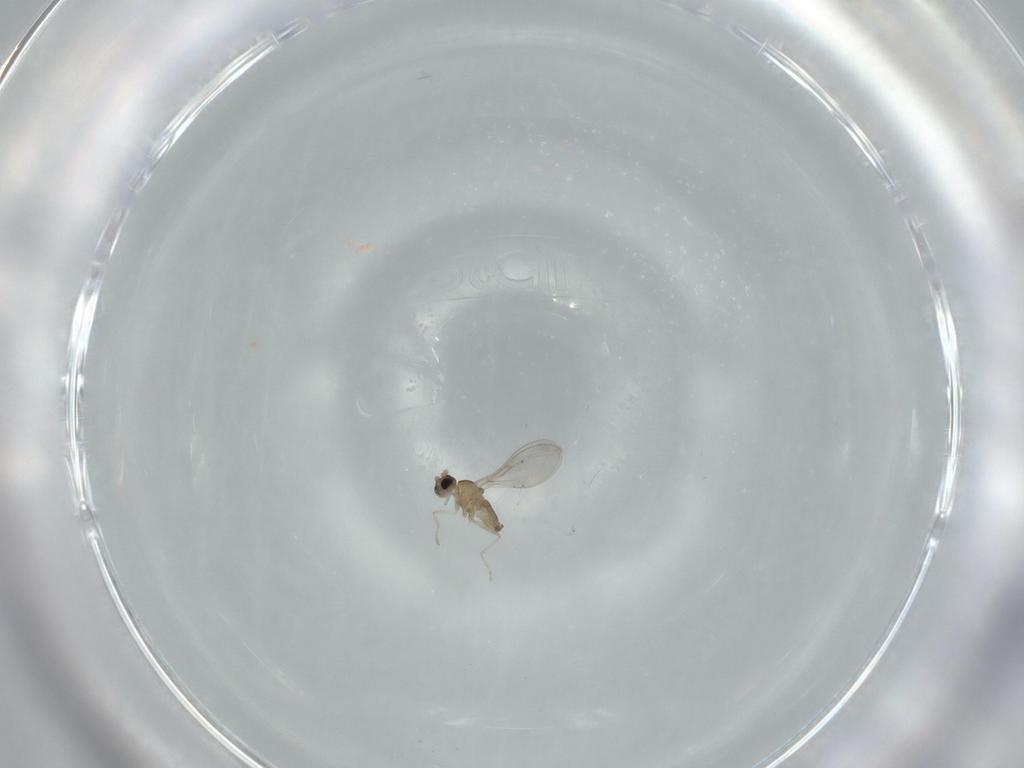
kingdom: Animalia
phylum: Arthropoda
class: Insecta
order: Diptera
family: Cecidomyiidae
